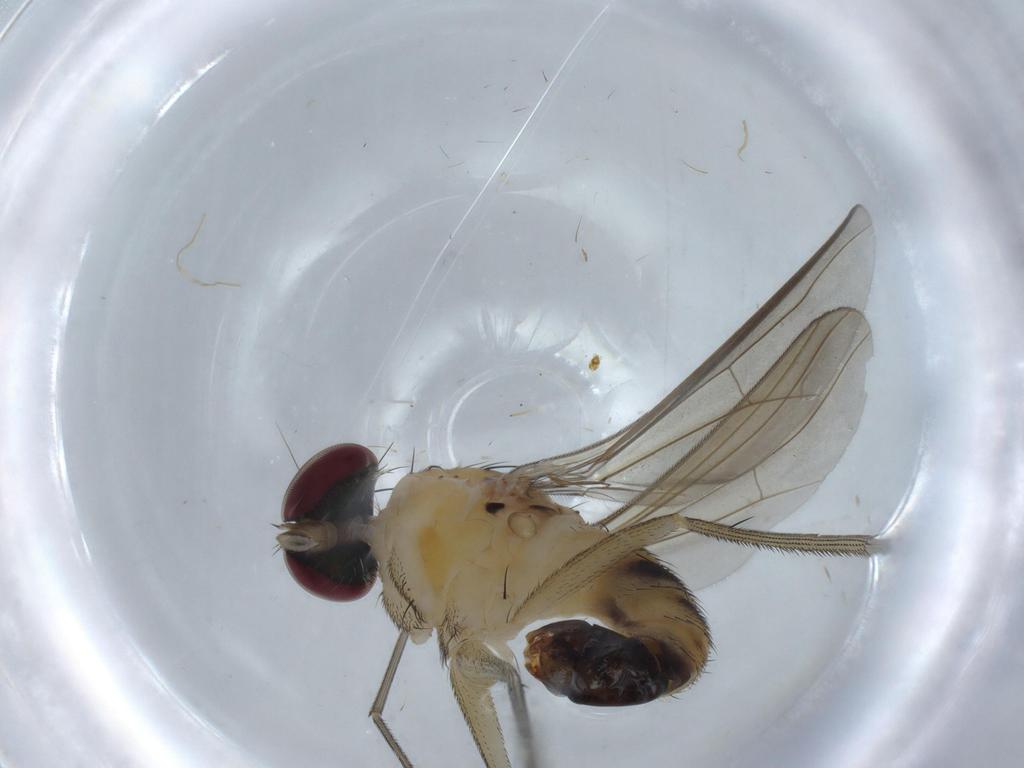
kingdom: Animalia
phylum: Arthropoda
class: Insecta
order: Diptera
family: Dolichopodidae
